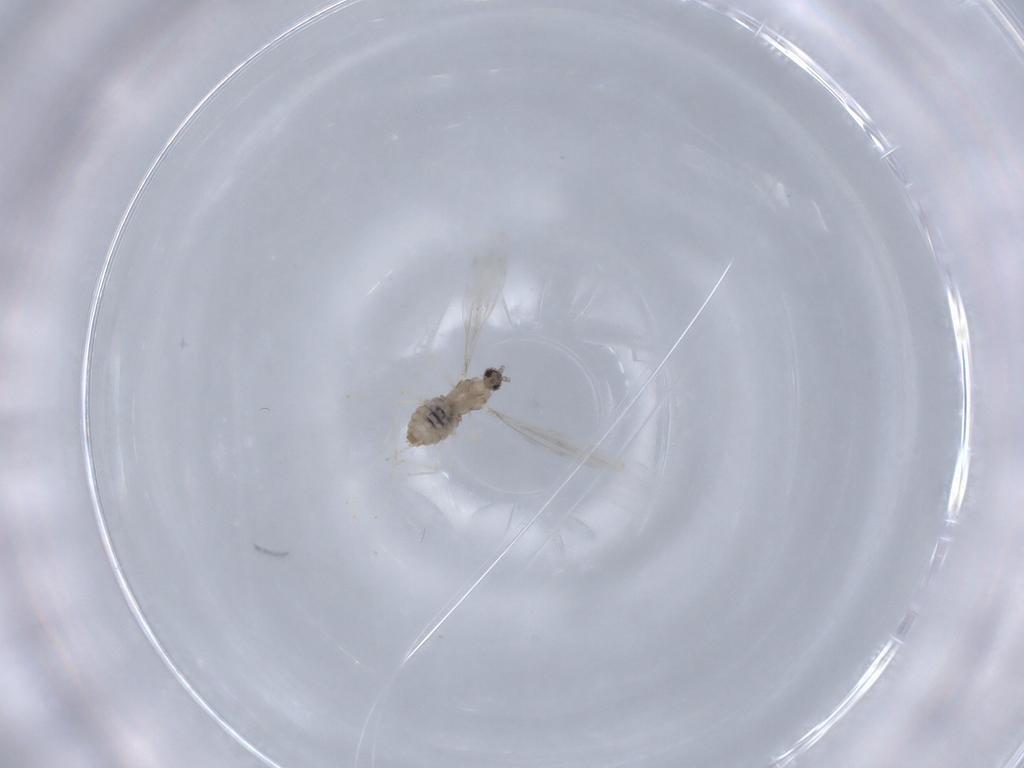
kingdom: Animalia
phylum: Arthropoda
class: Insecta
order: Diptera
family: Cecidomyiidae
